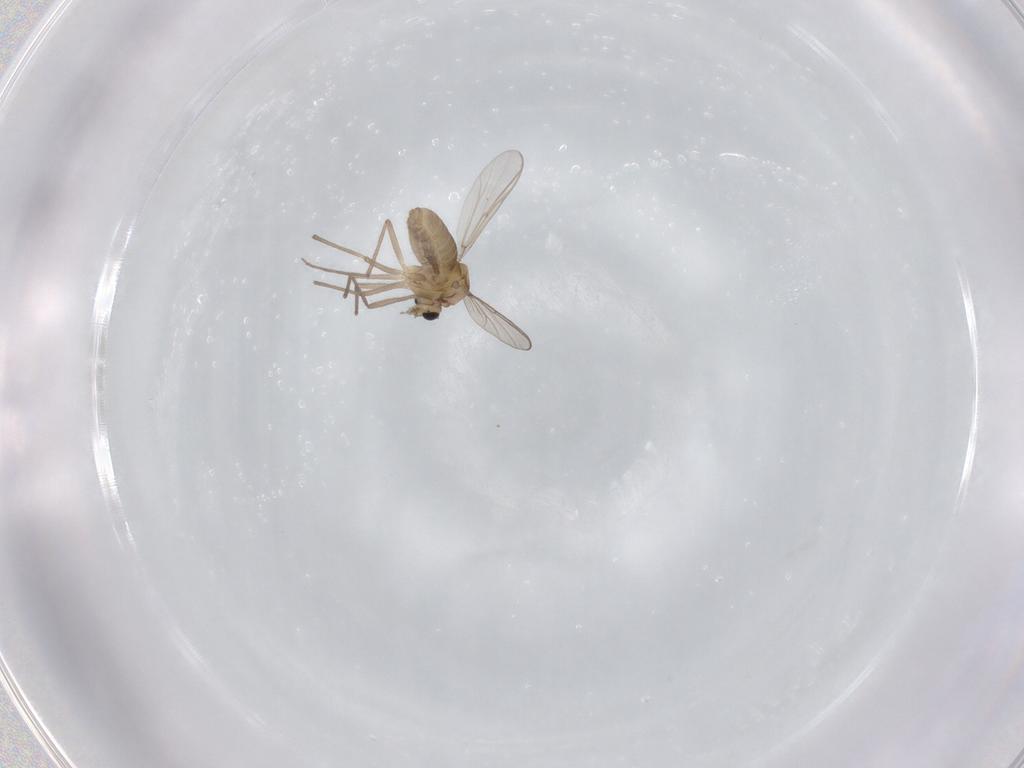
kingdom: Animalia
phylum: Arthropoda
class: Insecta
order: Diptera
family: Chironomidae
